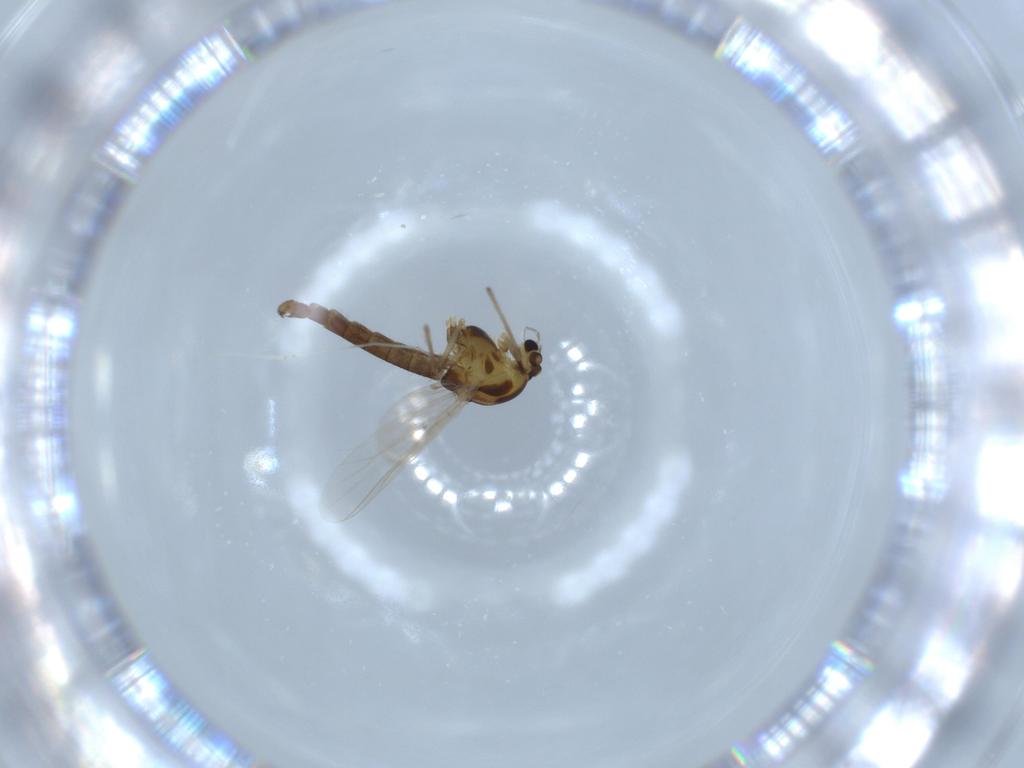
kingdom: Animalia
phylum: Arthropoda
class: Insecta
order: Diptera
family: Chironomidae
